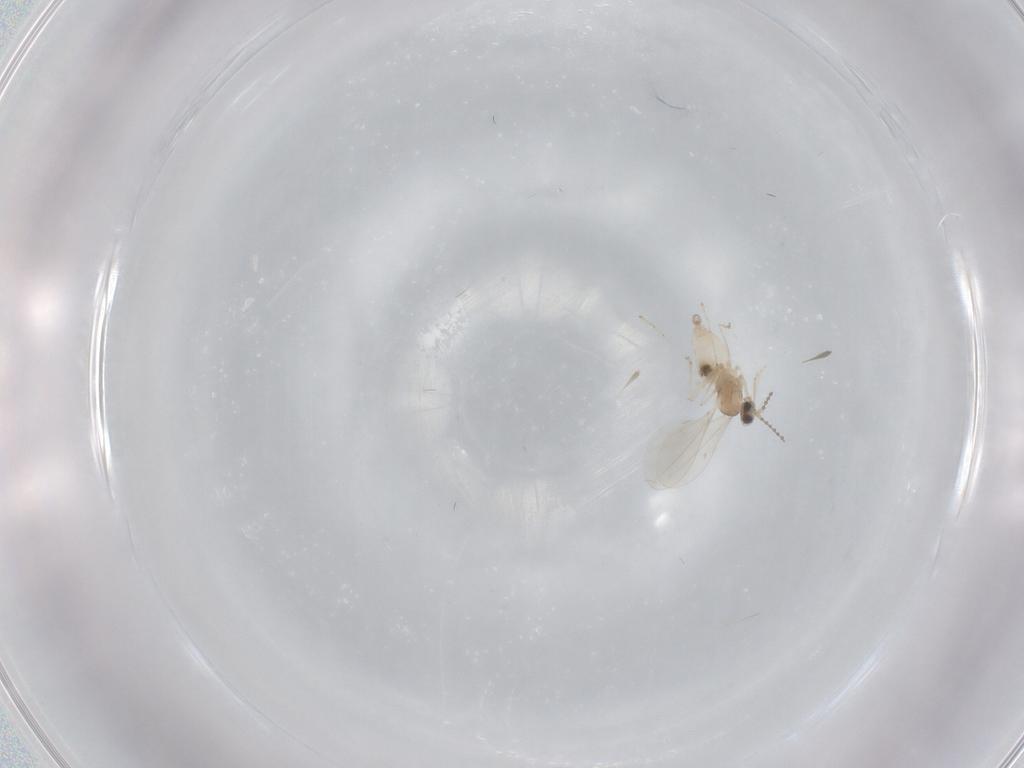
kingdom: Animalia
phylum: Arthropoda
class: Insecta
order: Diptera
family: Cecidomyiidae
